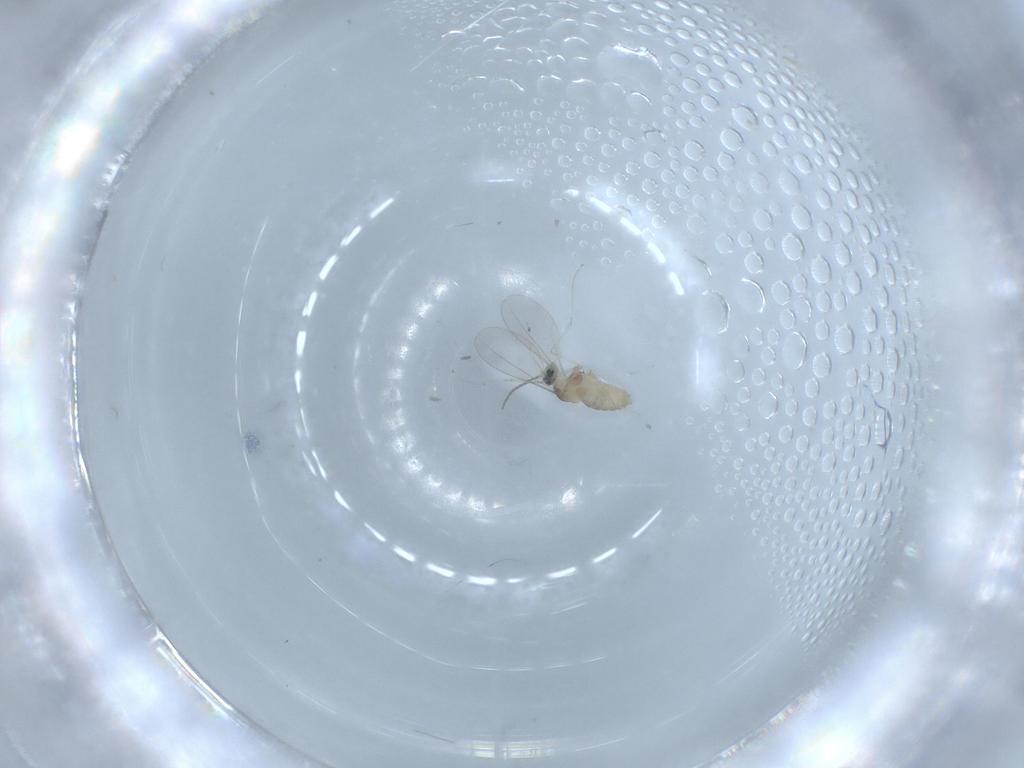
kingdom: Animalia
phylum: Arthropoda
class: Insecta
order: Diptera
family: Cecidomyiidae
